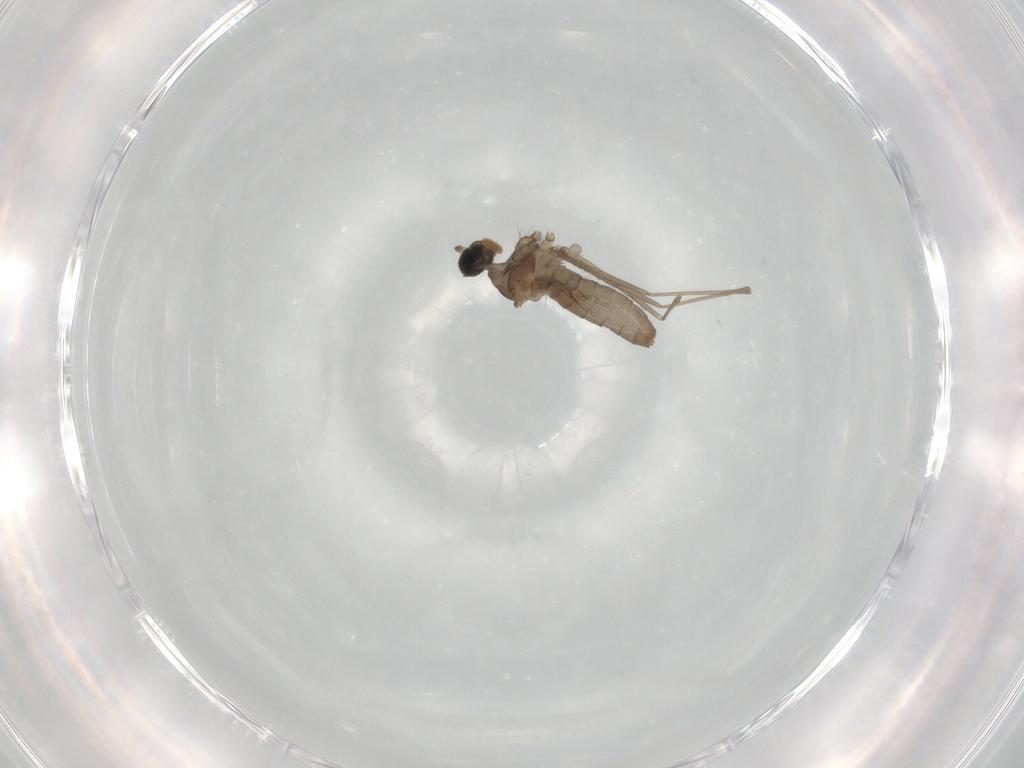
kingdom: Animalia
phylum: Arthropoda
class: Insecta
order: Diptera
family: Cecidomyiidae
